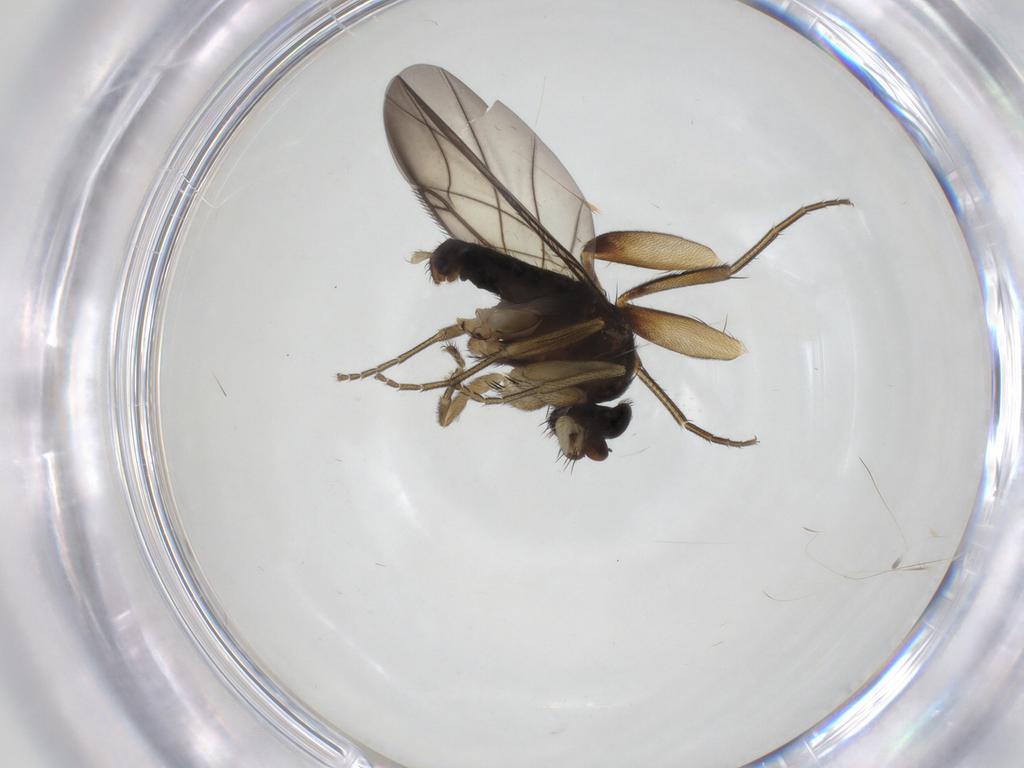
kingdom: Animalia
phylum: Arthropoda
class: Insecta
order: Diptera
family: Phoridae
